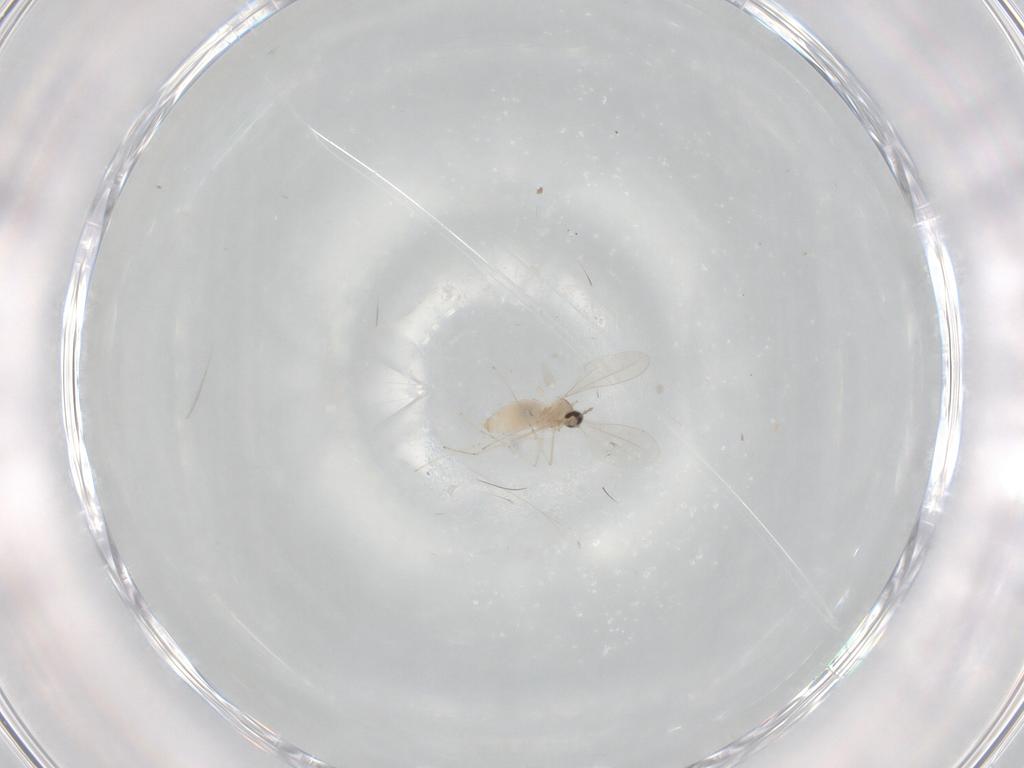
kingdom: Animalia
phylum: Arthropoda
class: Insecta
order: Diptera
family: Cecidomyiidae
